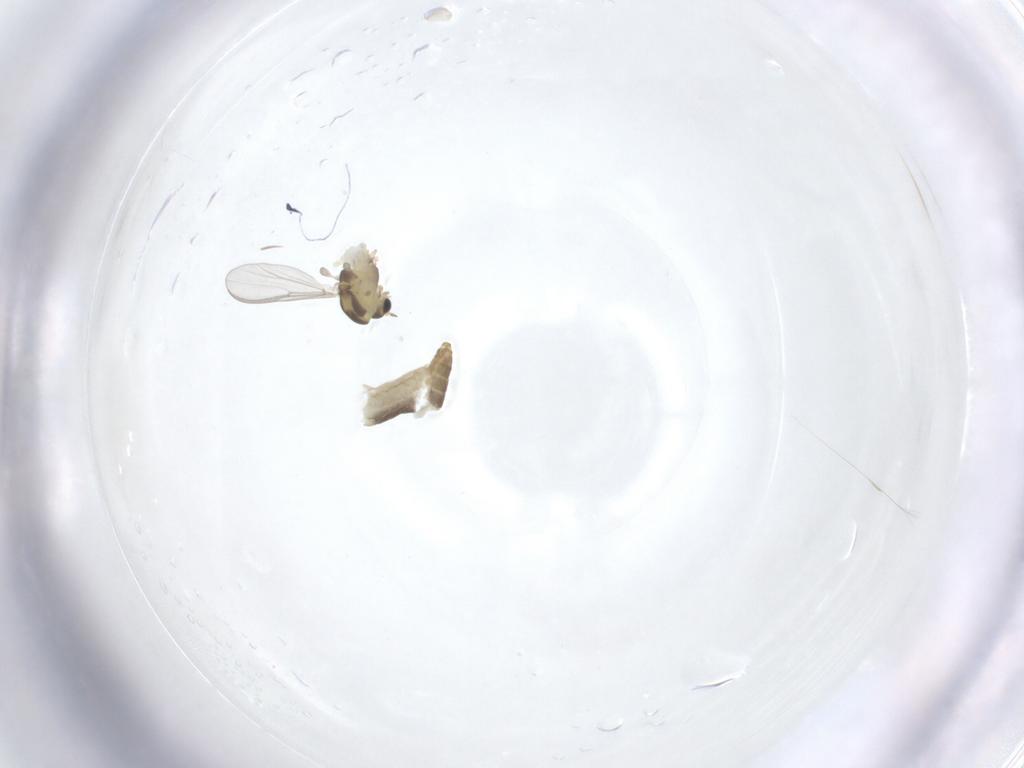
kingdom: Animalia
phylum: Arthropoda
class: Insecta
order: Diptera
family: Chironomidae
